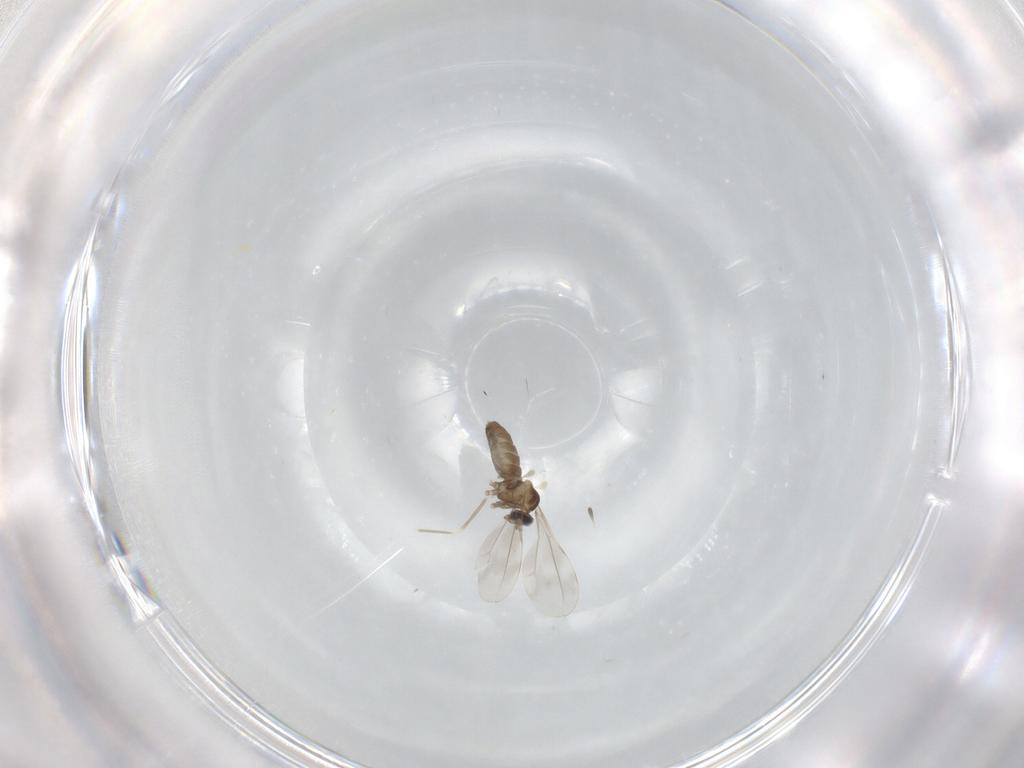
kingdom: Animalia
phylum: Arthropoda
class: Insecta
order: Diptera
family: Cecidomyiidae
